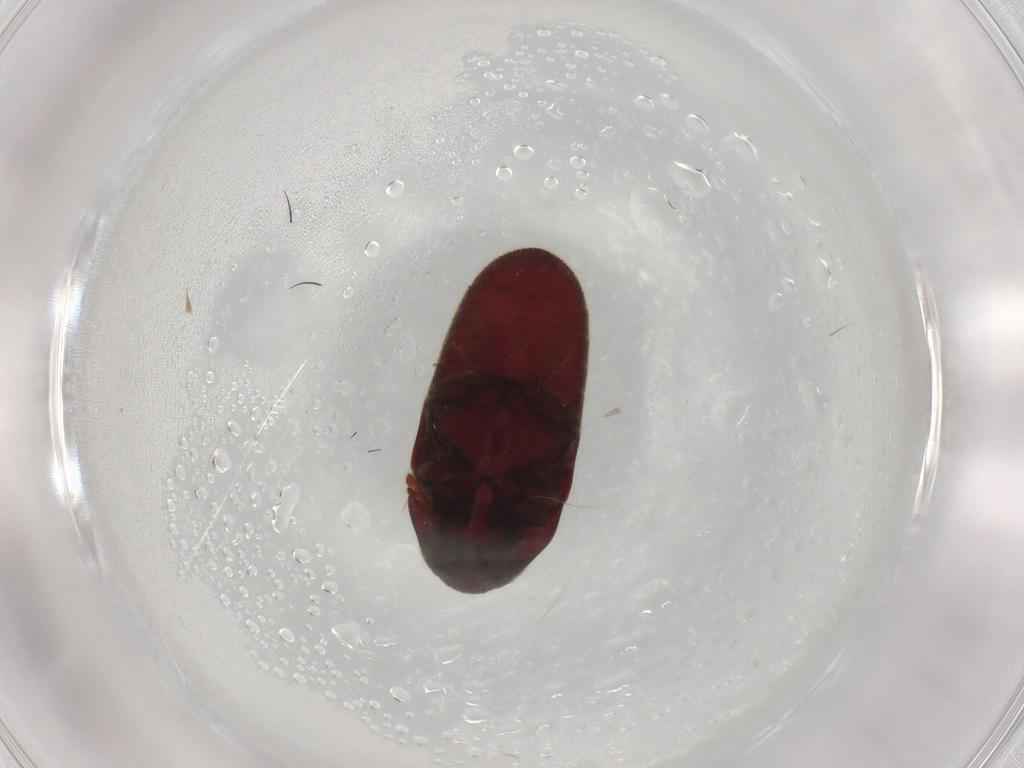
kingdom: Animalia
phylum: Arthropoda
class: Insecta
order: Coleoptera
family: Throscidae
